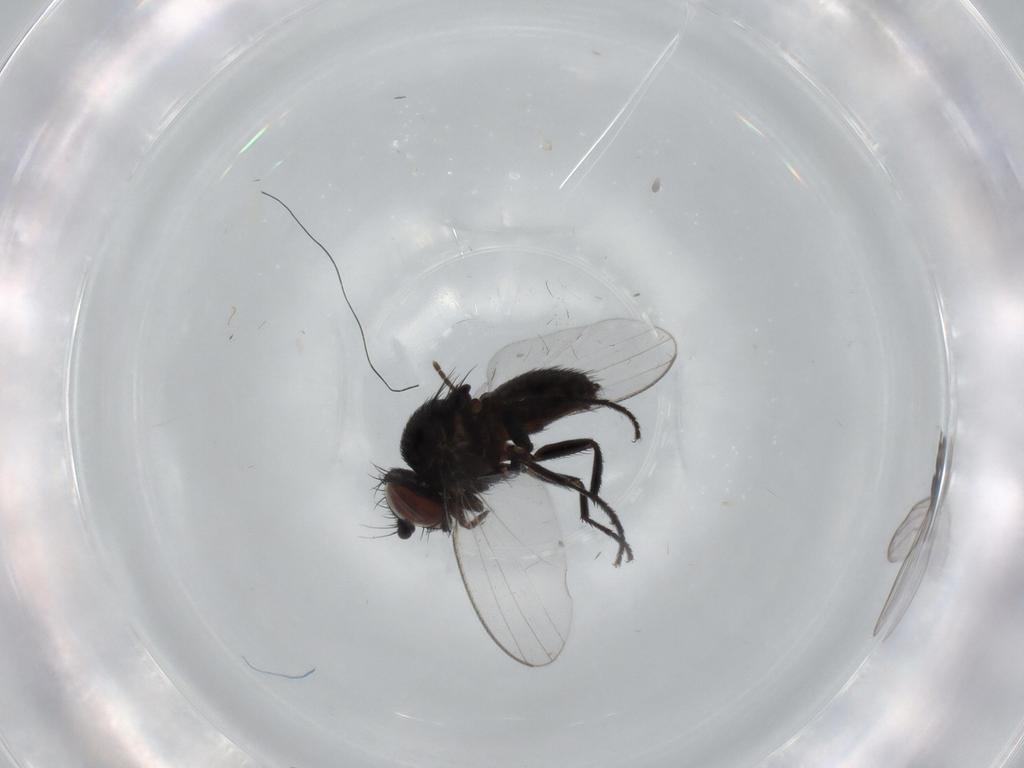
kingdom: Animalia
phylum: Arthropoda
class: Insecta
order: Diptera
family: Milichiidae
